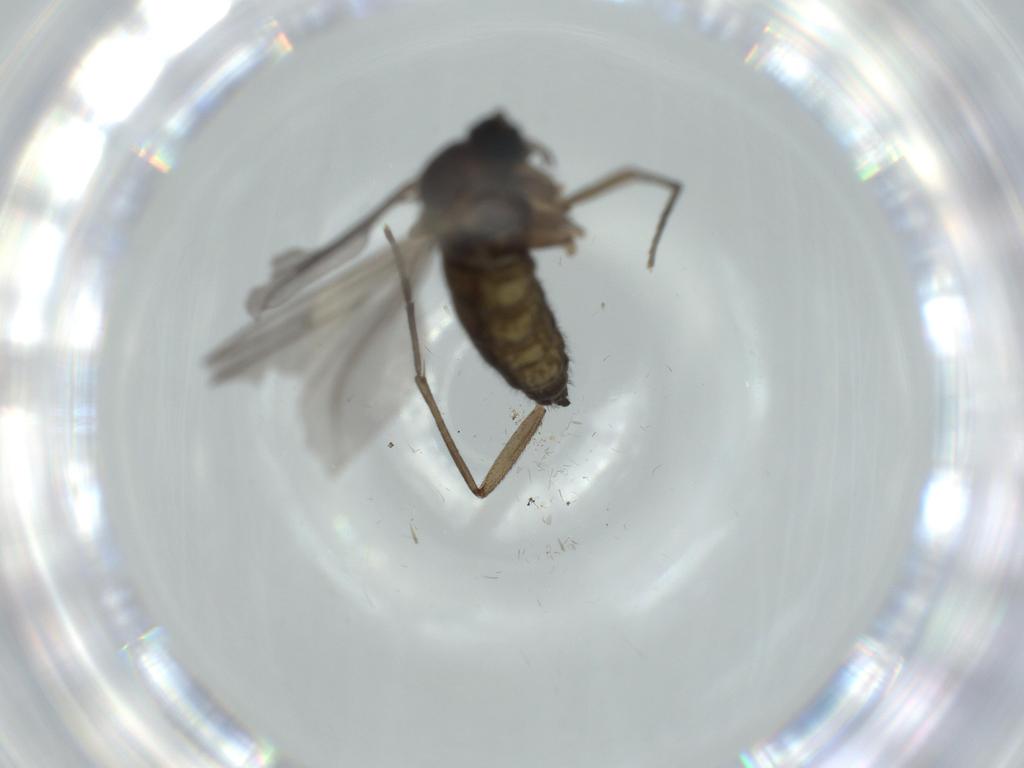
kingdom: Animalia
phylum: Arthropoda
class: Insecta
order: Diptera
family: Sciaridae
